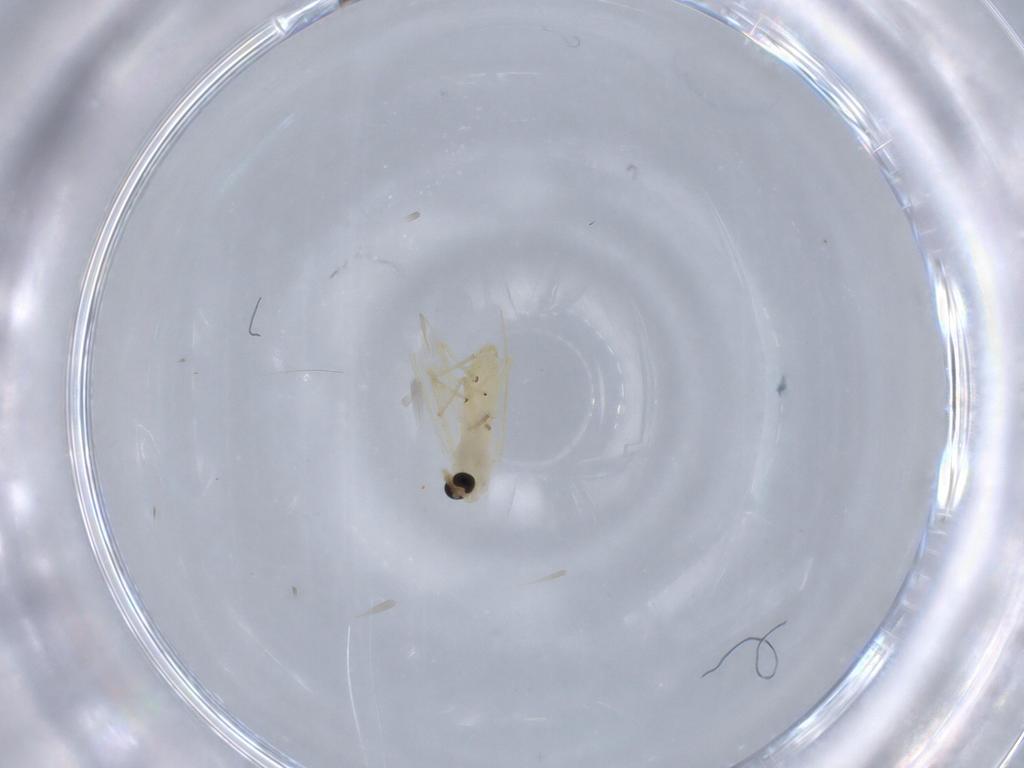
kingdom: Animalia
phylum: Arthropoda
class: Insecta
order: Diptera
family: Chironomidae
